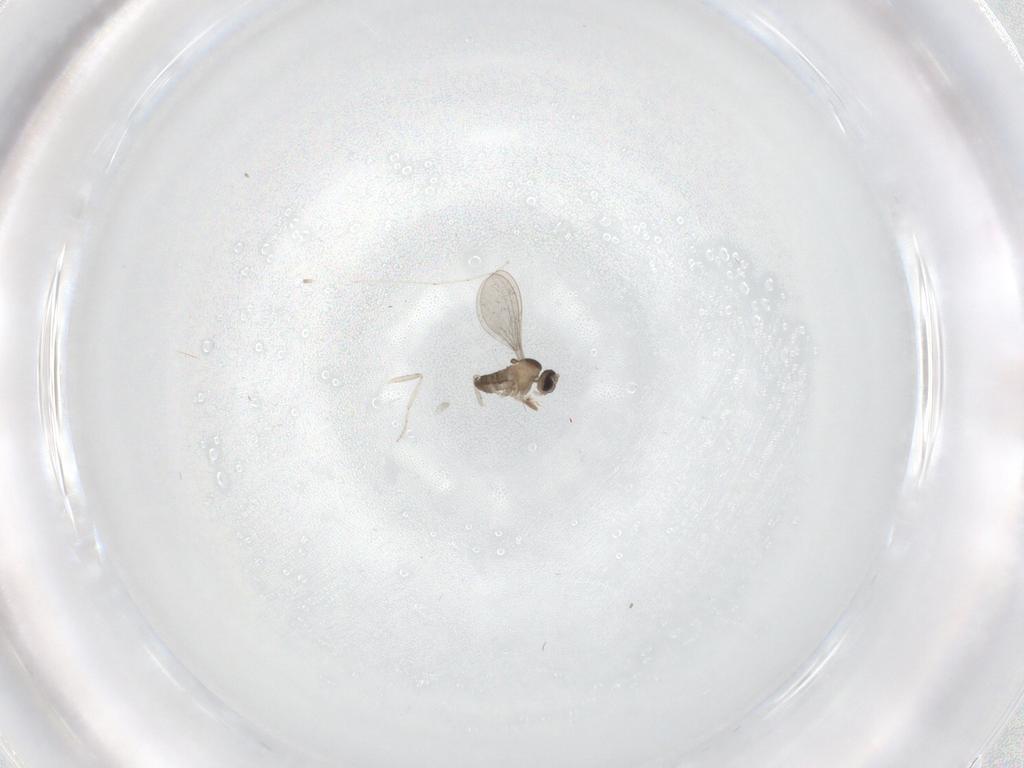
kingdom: Animalia
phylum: Arthropoda
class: Insecta
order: Diptera
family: Cecidomyiidae
